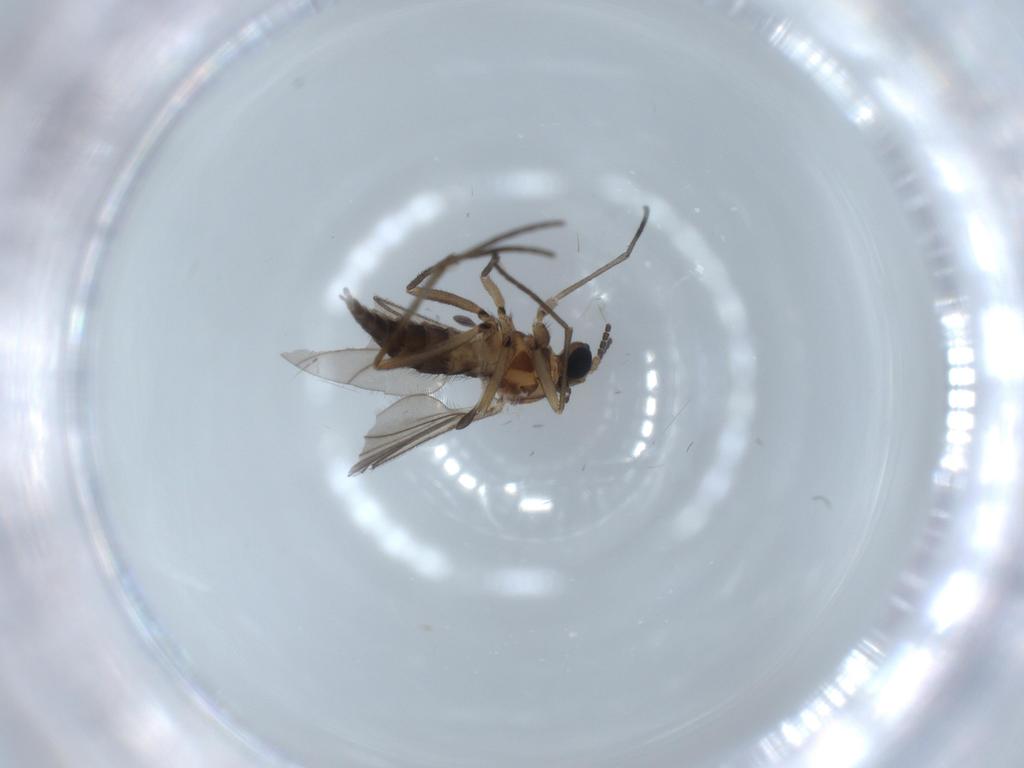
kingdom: Animalia
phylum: Arthropoda
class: Insecta
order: Diptera
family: Sciaridae
